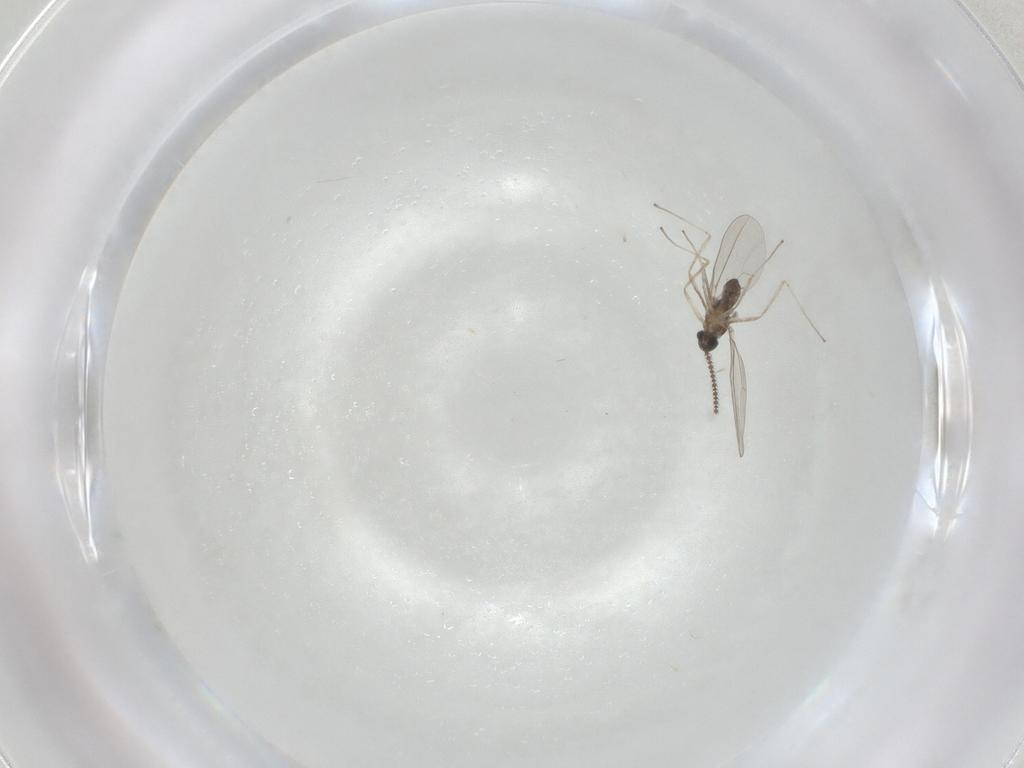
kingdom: Animalia
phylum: Arthropoda
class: Insecta
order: Diptera
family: Cecidomyiidae
